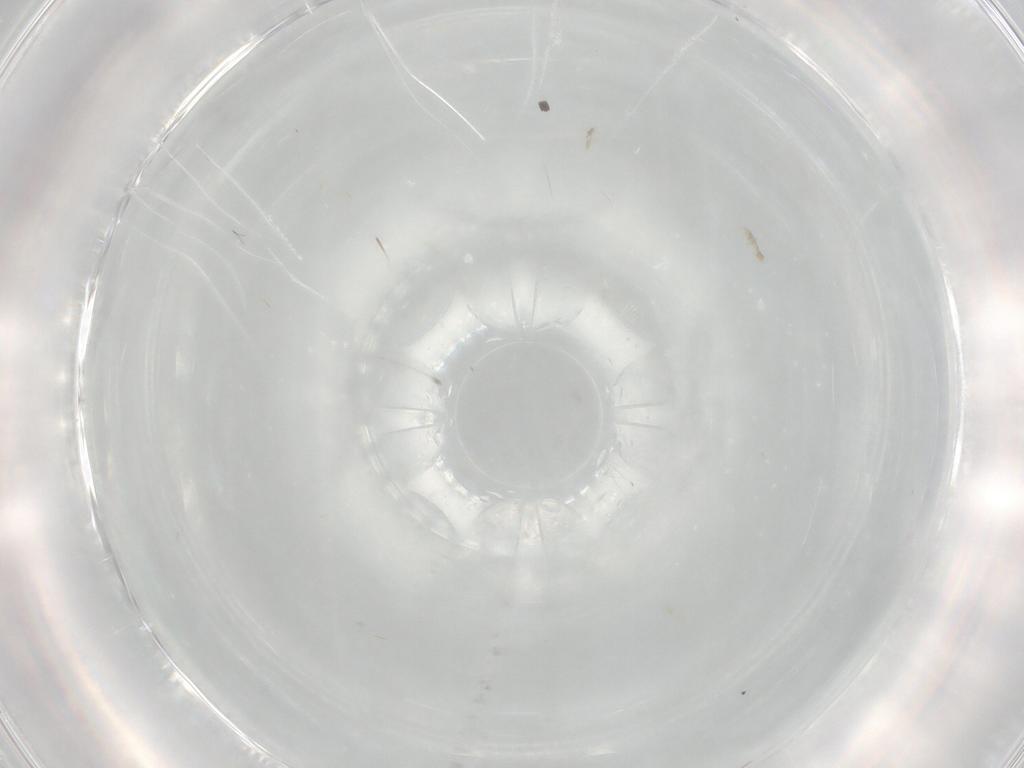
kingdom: Animalia
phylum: Arthropoda
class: Insecta
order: Diptera
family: Bombyliidae
